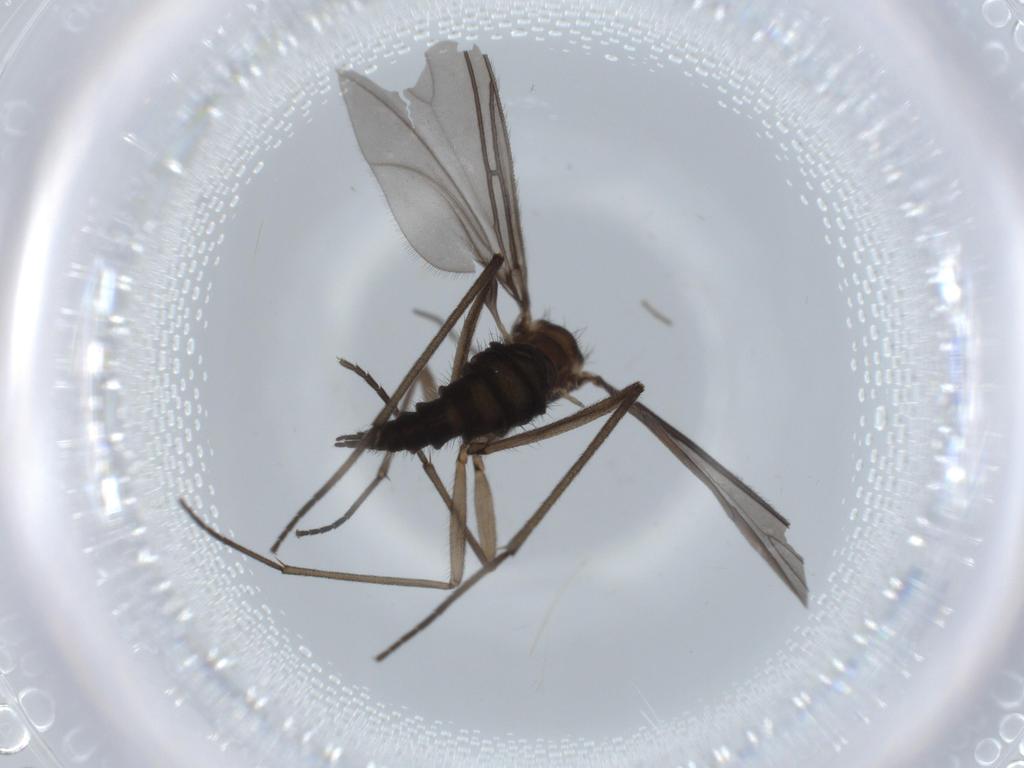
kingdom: Animalia
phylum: Arthropoda
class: Insecta
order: Diptera
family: Sciaridae
